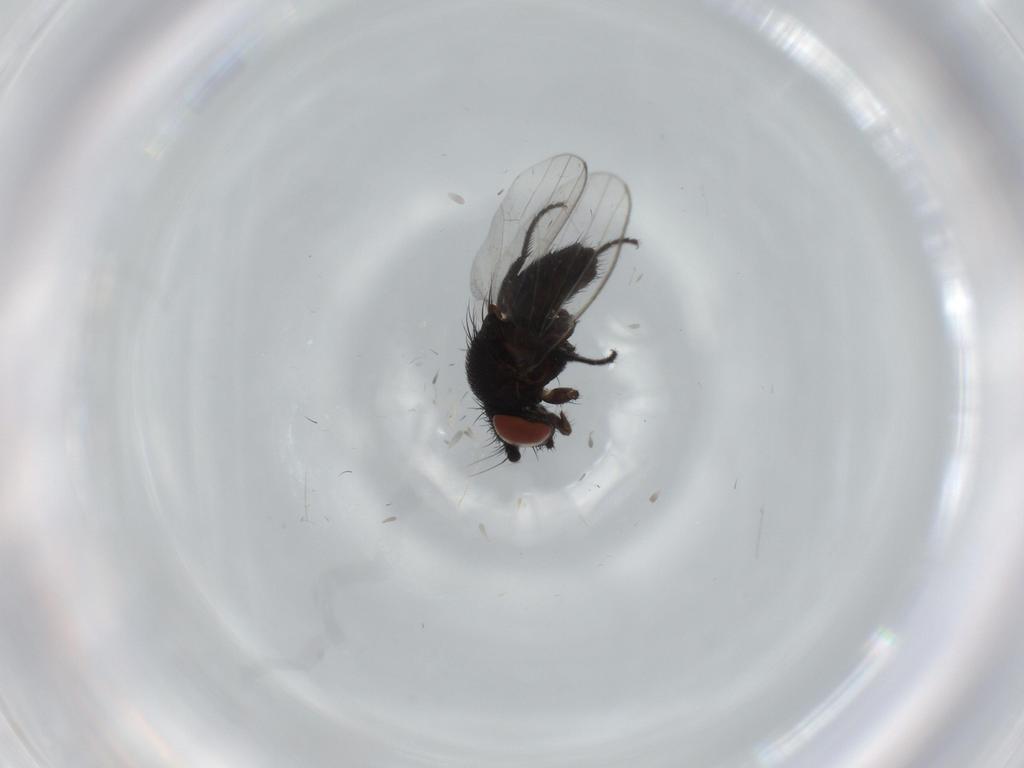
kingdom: Animalia
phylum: Arthropoda
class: Insecta
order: Diptera
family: Milichiidae
